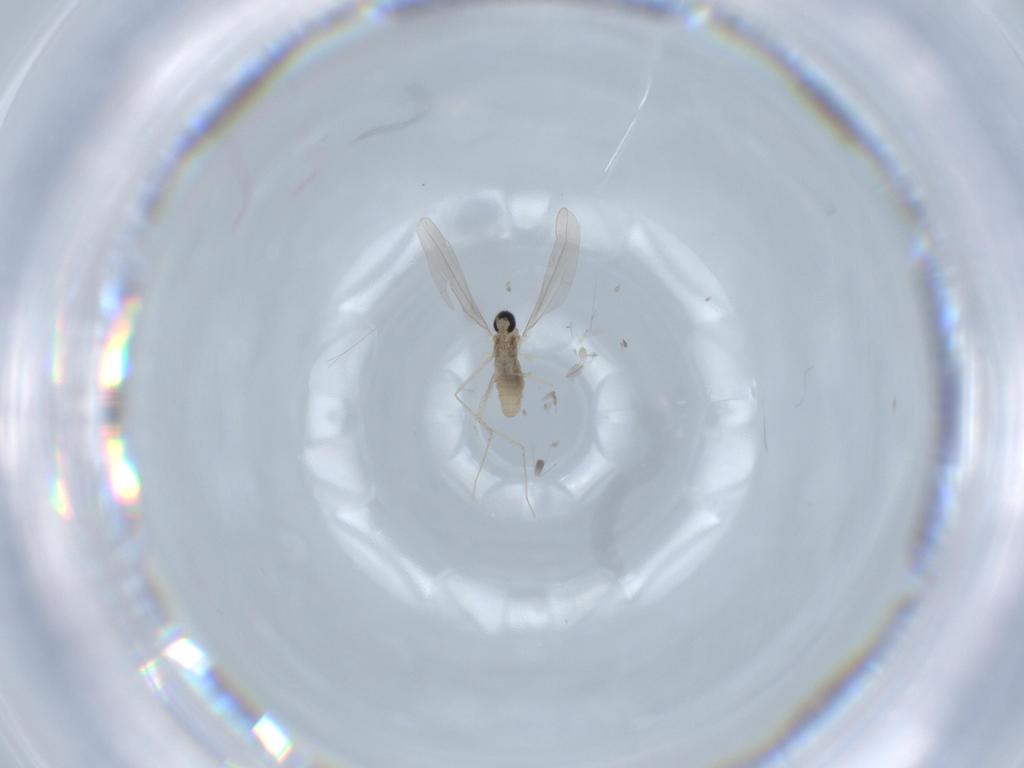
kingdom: Animalia
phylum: Arthropoda
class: Insecta
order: Diptera
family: Cecidomyiidae
